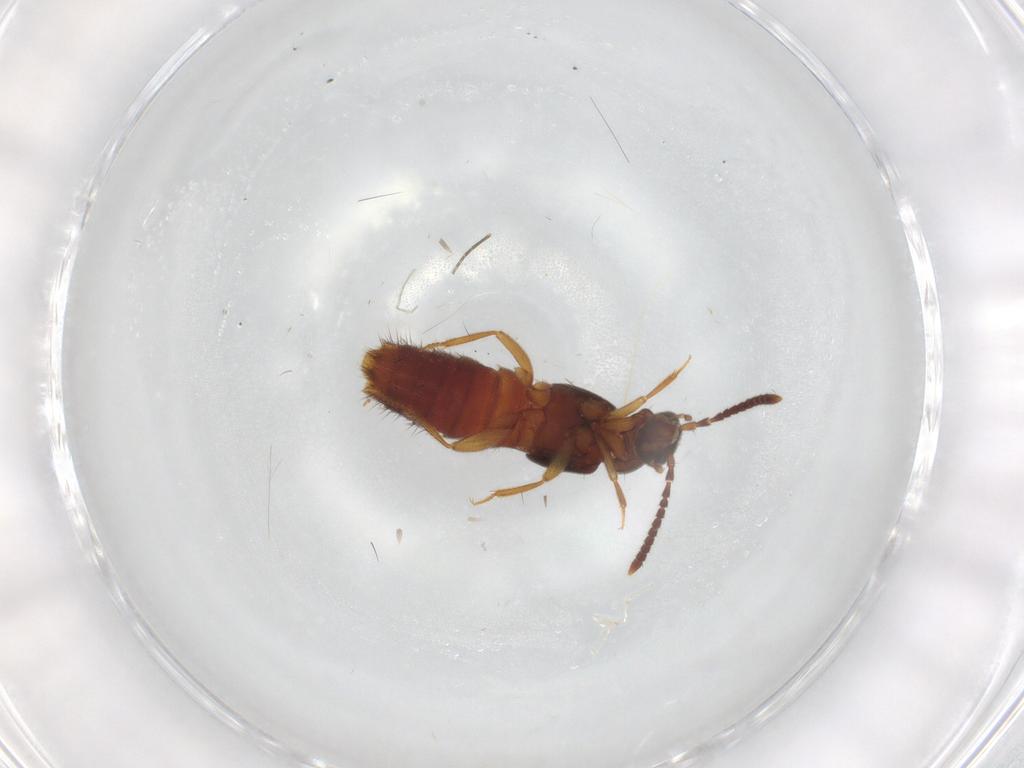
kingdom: Animalia
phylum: Arthropoda
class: Insecta
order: Coleoptera
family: Staphylinidae
